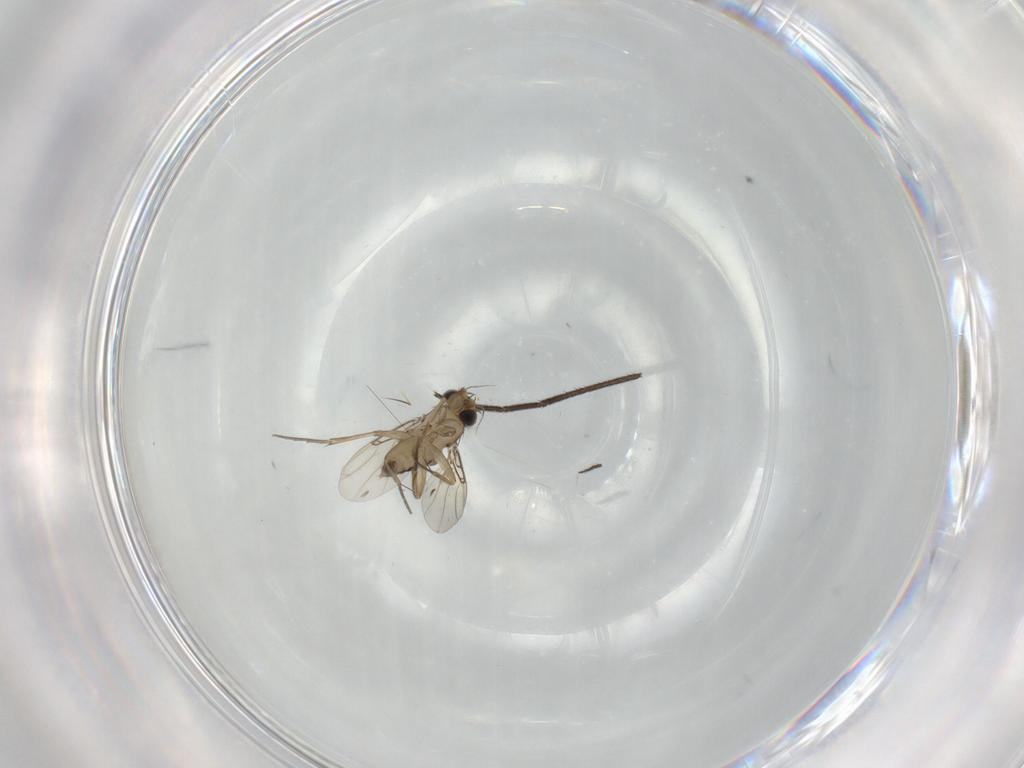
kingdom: Animalia
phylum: Arthropoda
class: Insecta
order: Diptera
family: Phoridae
